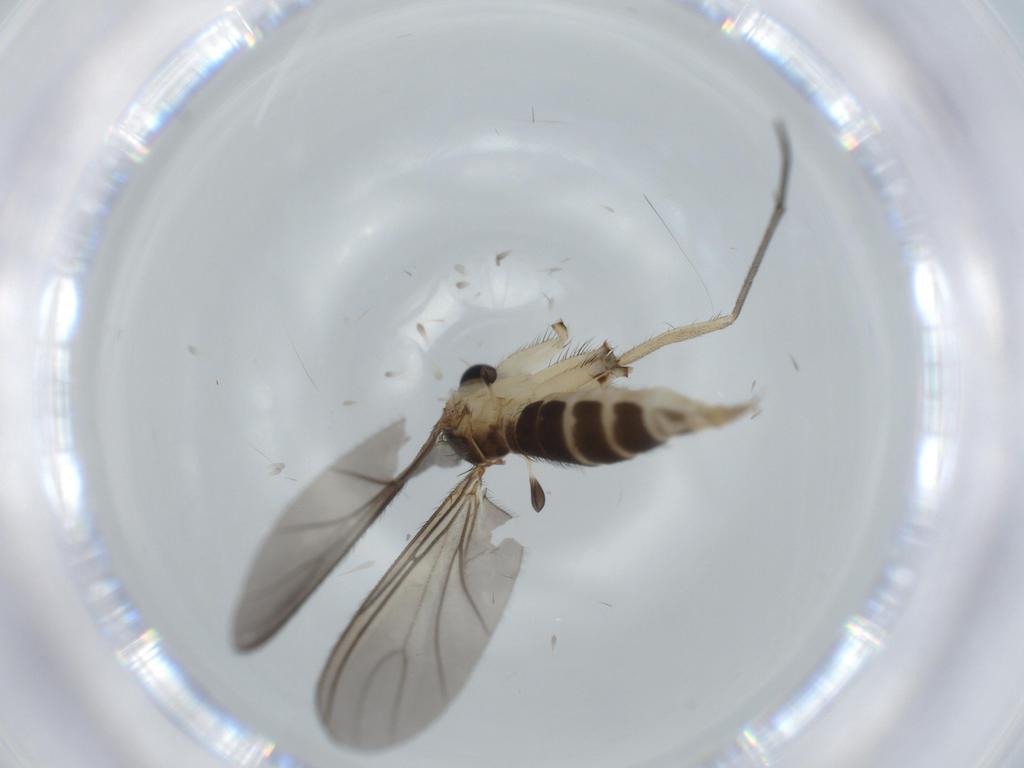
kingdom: Animalia
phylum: Arthropoda
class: Insecta
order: Diptera
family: Sciaridae
